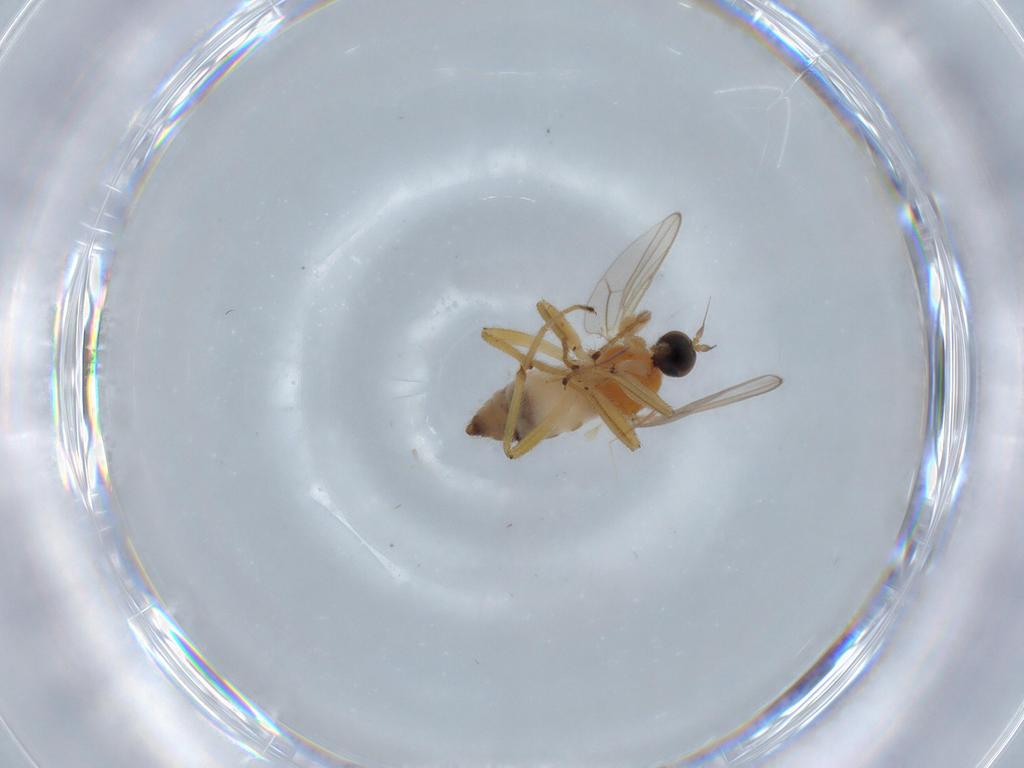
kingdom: Animalia
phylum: Arthropoda
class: Insecta
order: Diptera
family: Hybotidae
